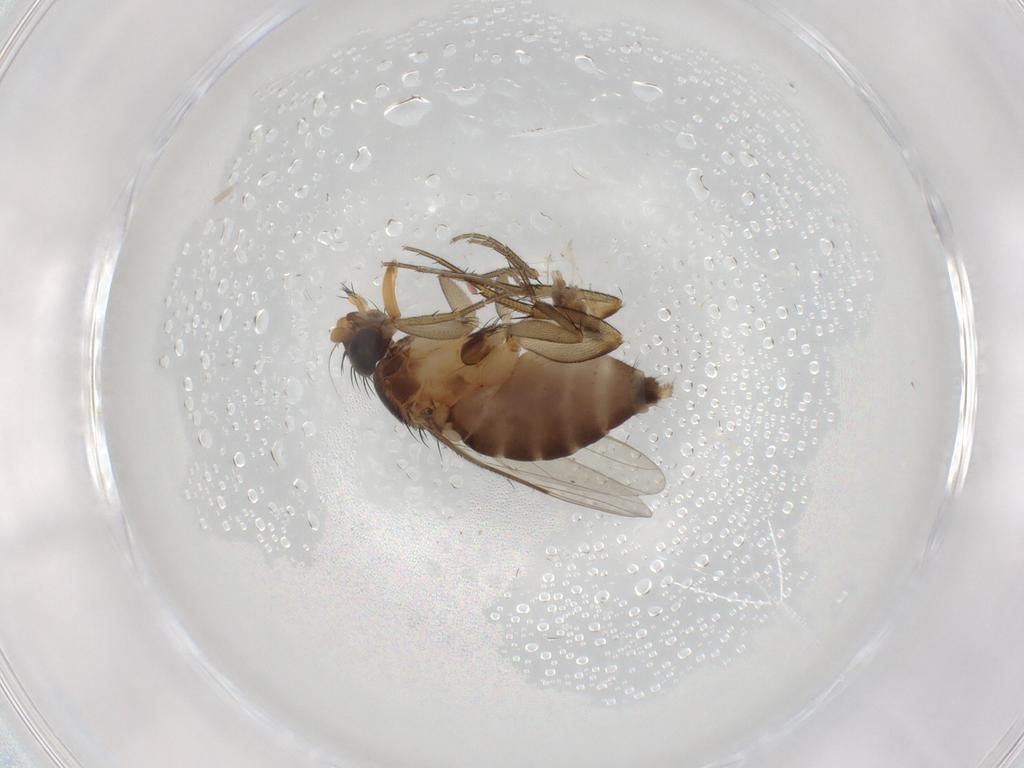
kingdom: Animalia
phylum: Arthropoda
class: Insecta
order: Diptera
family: Phoridae
